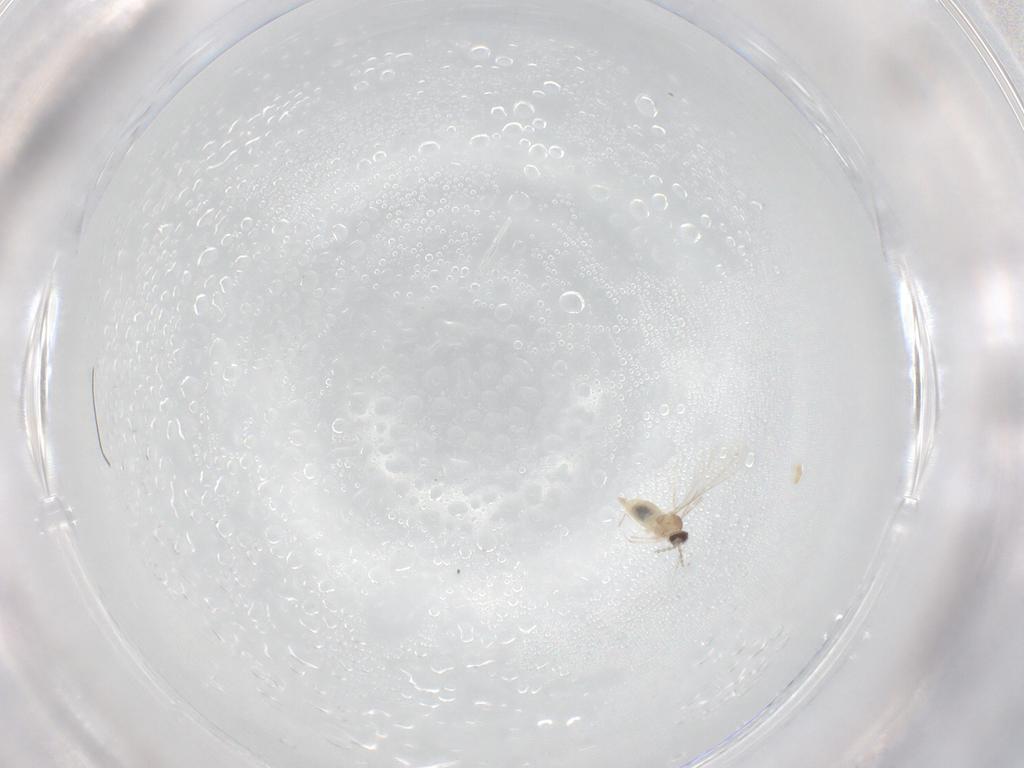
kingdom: Animalia
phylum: Arthropoda
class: Insecta
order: Diptera
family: Cecidomyiidae
